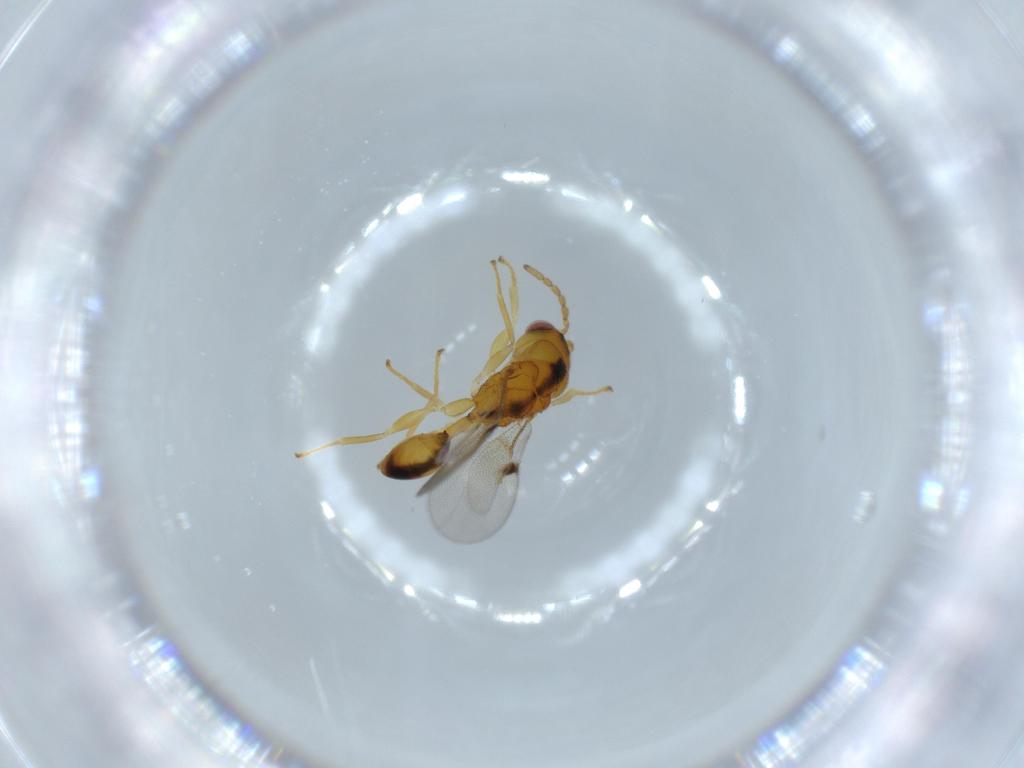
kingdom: Animalia
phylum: Arthropoda
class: Insecta
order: Hymenoptera
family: Eurytomidae
